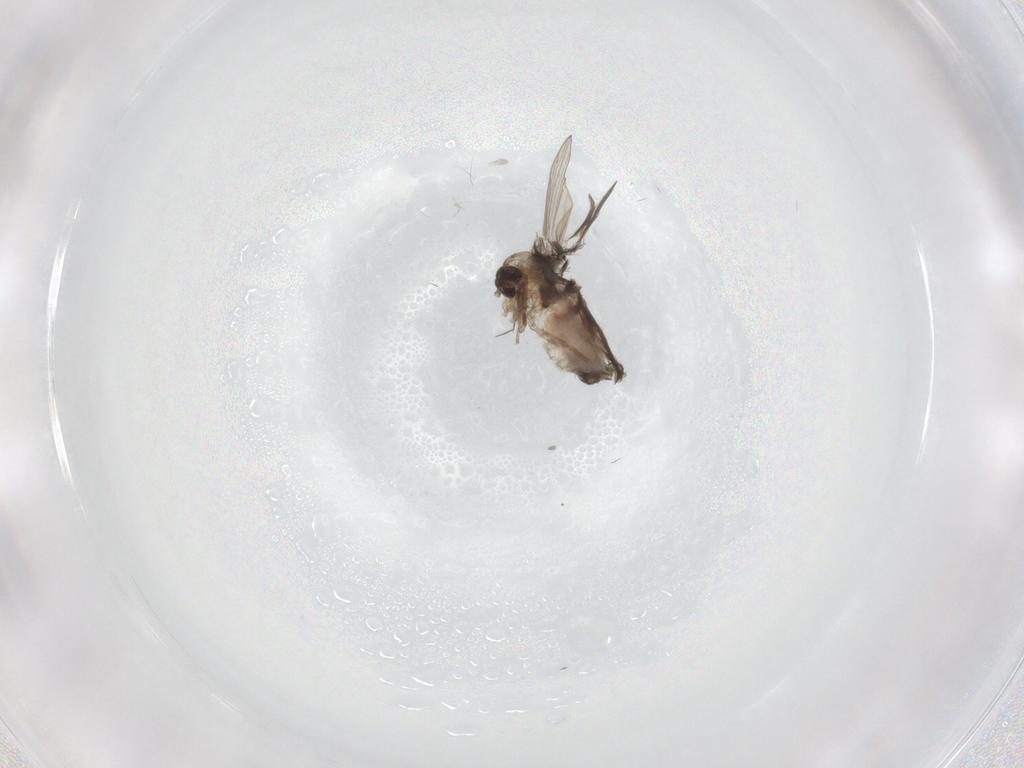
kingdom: Animalia
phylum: Arthropoda
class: Insecta
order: Diptera
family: Psychodidae
